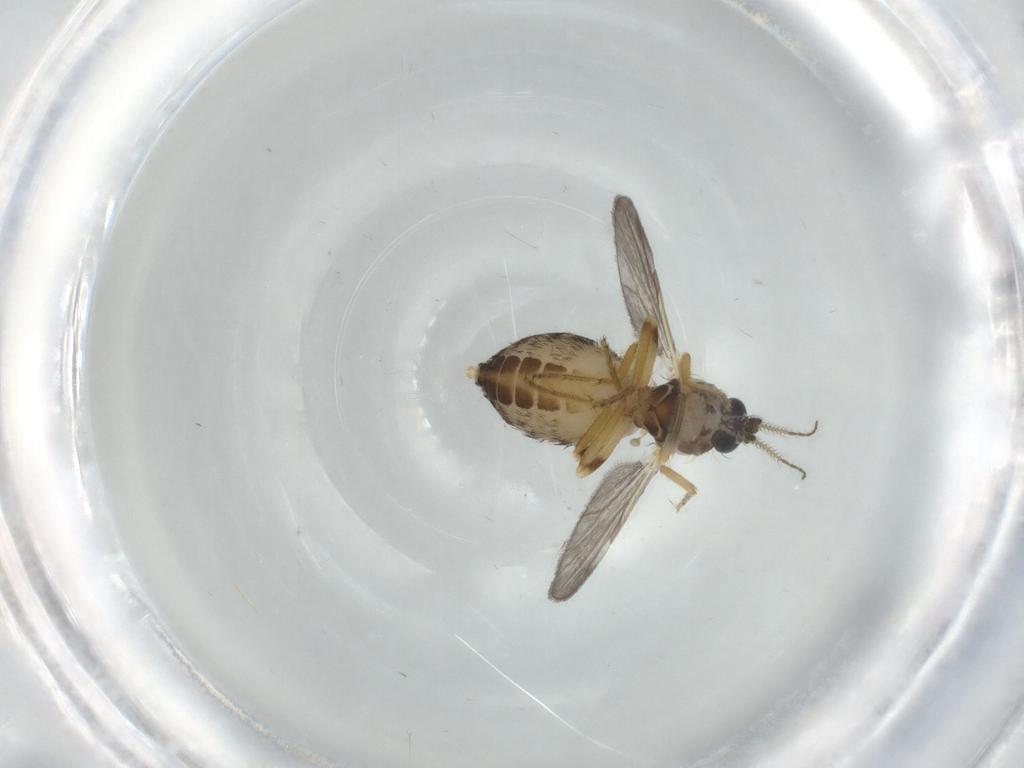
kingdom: Animalia
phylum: Arthropoda
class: Insecta
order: Diptera
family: Ceratopogonidae
